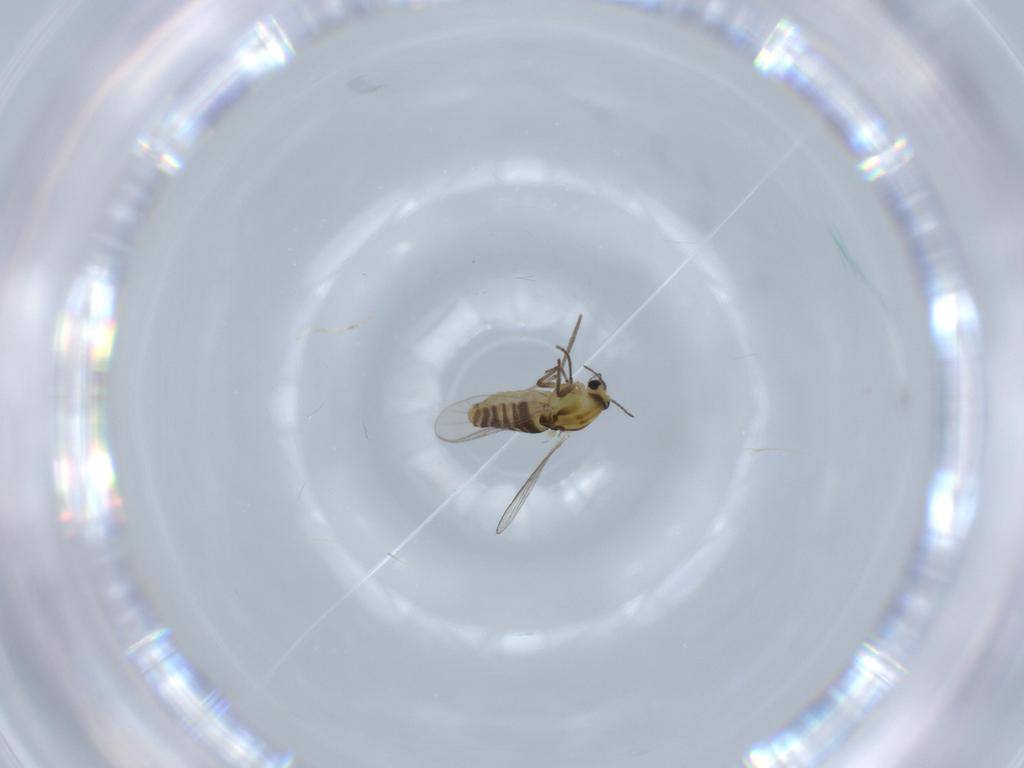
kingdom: Animalia
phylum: Arthropoda
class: Insecta
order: Diptera
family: Chironomidae
